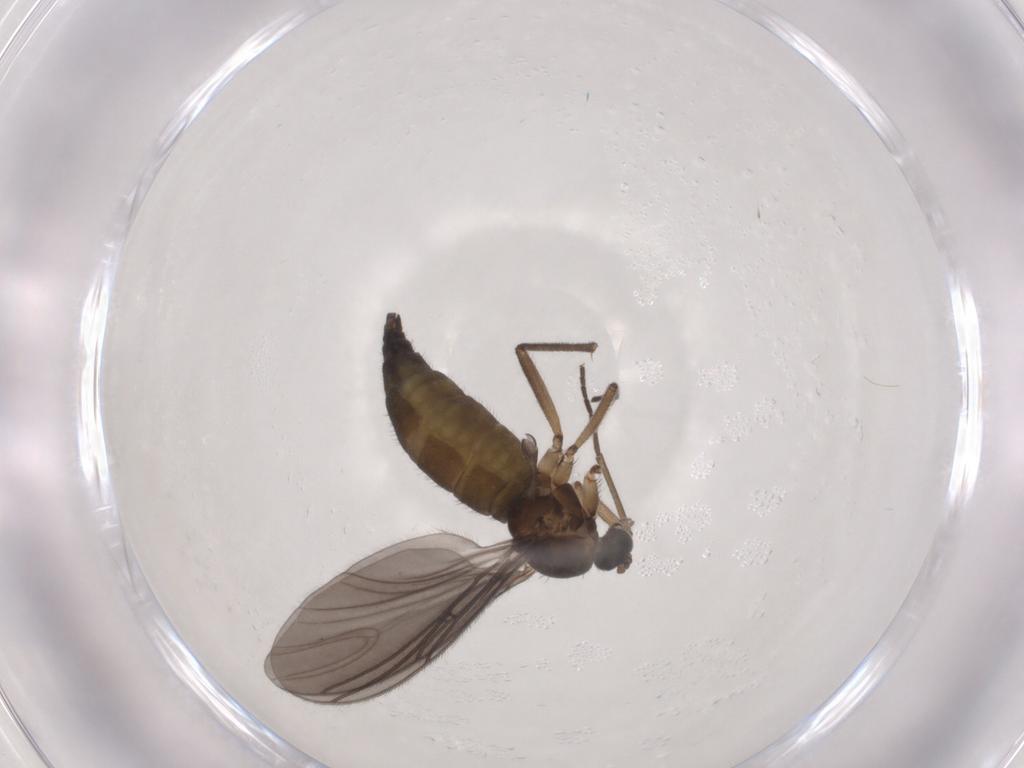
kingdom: Animalia
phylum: Arthropoda
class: Insecta
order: Diptera
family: Sciaridae
